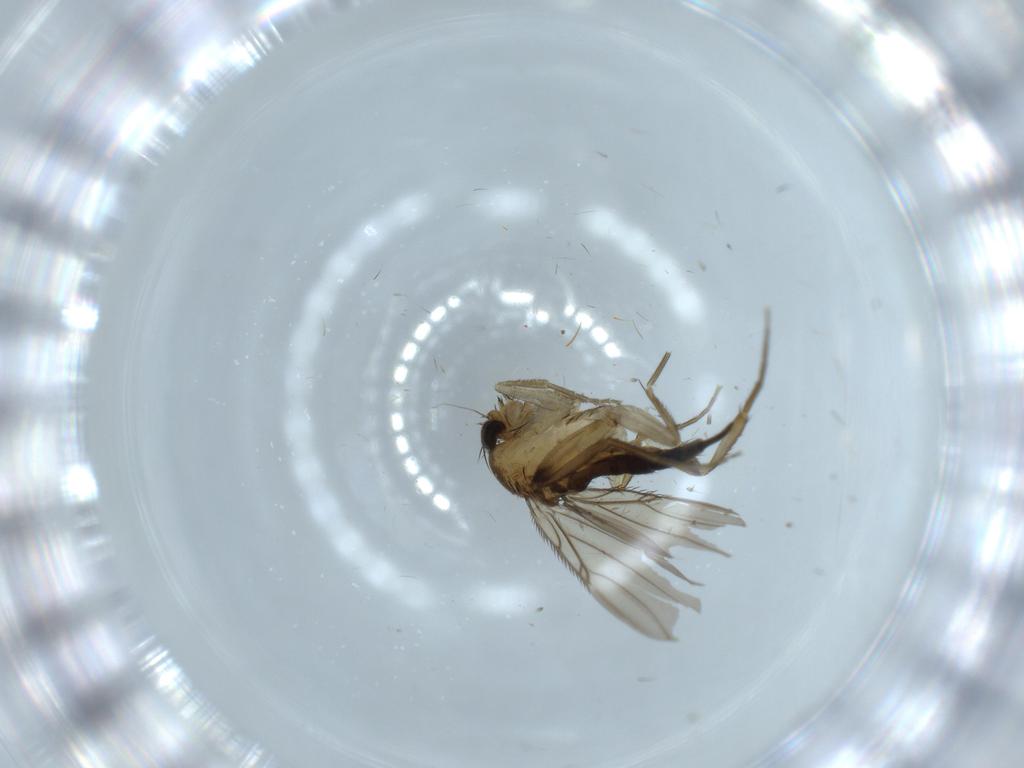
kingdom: Animalia
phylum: Arthropoda
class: Insecta
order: Diptera
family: Phoridae
